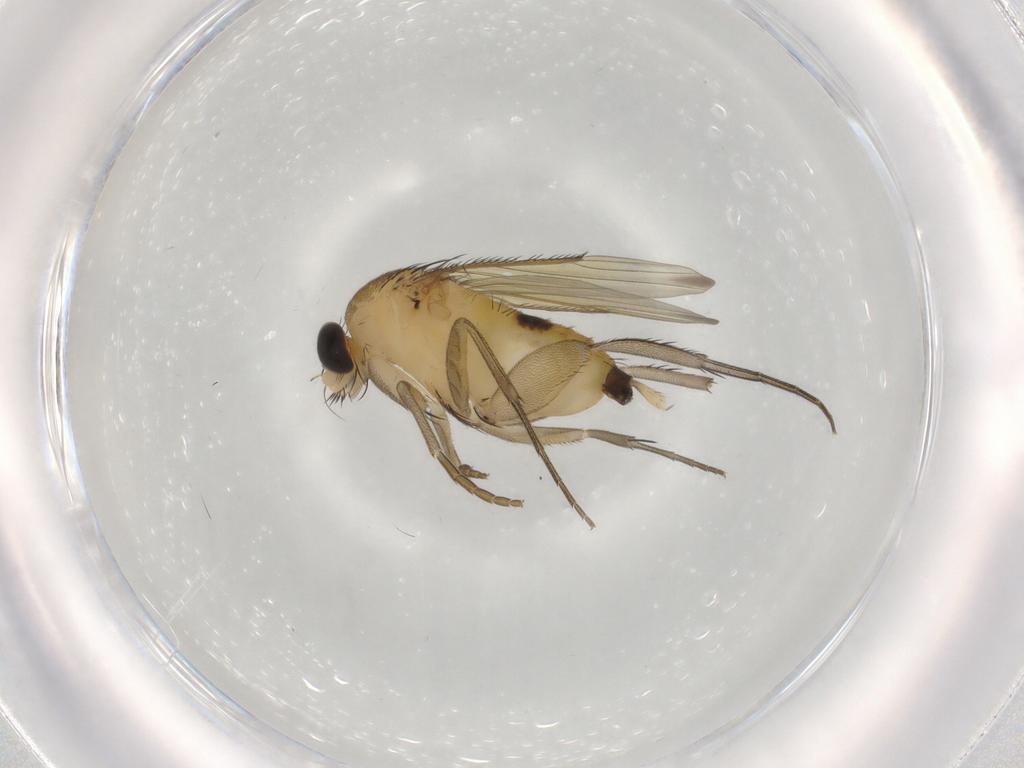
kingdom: Animalia
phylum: Arthropoda
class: Insecta
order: Diptera
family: Phoridae
